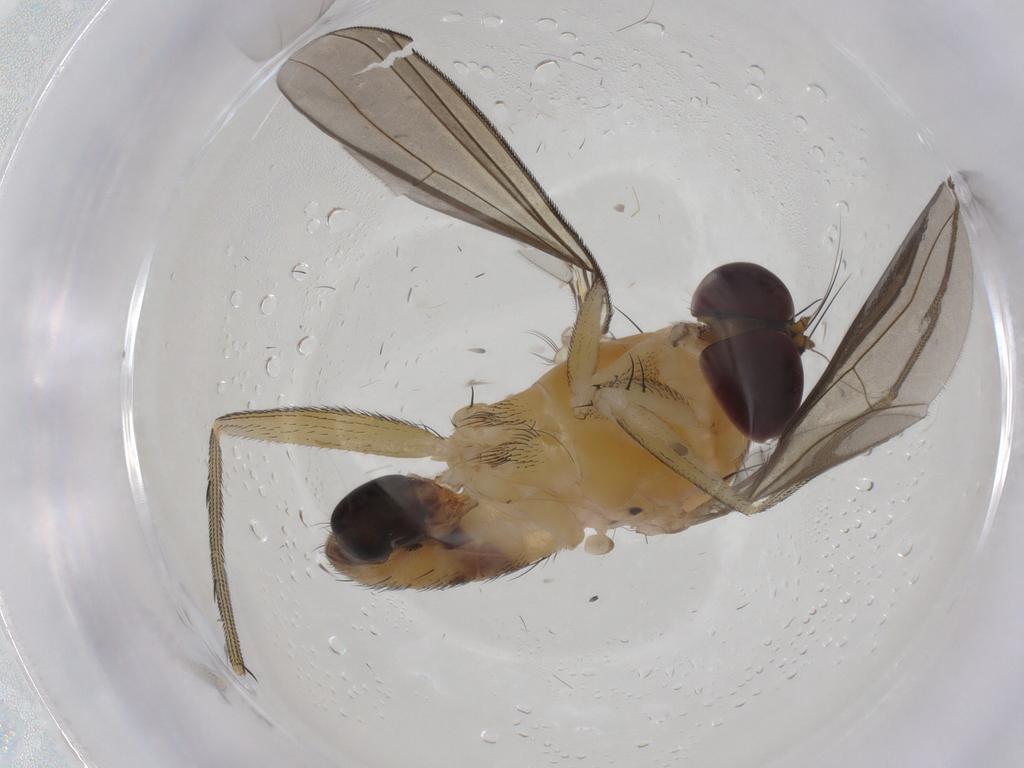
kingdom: Animalia
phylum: Arthropoda
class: Insecta
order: Diptera
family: Dolichopodidae
